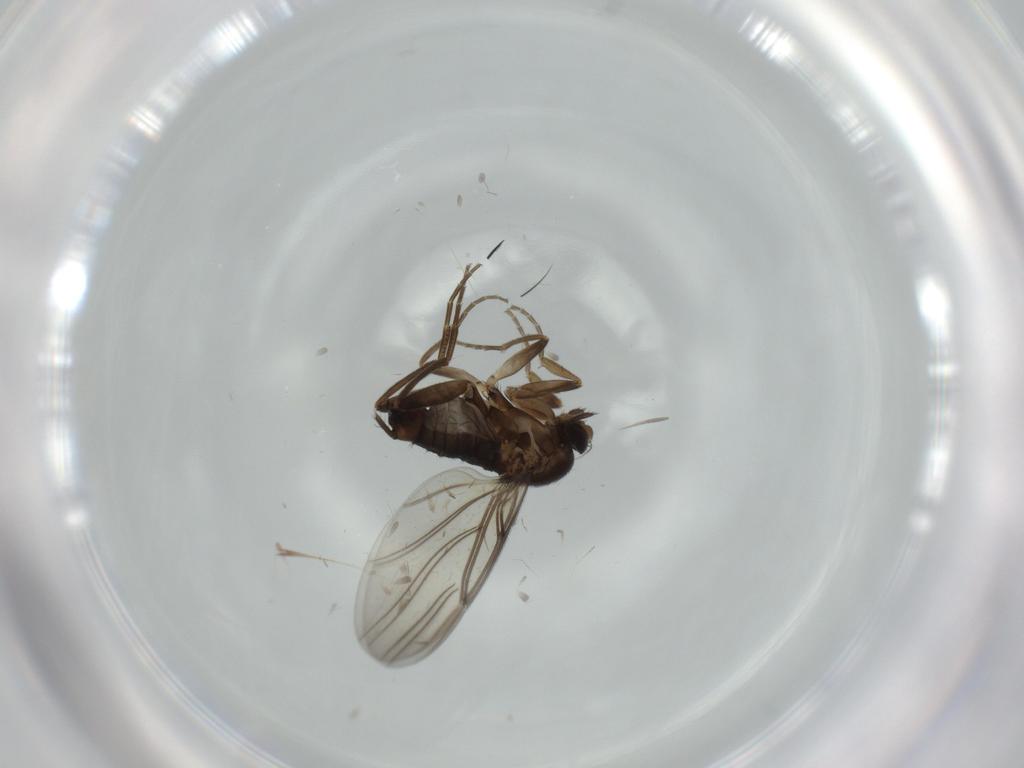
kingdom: Animalia
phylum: Arthropoda
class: Insecta
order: Diptera
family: Cecidomyiidae
